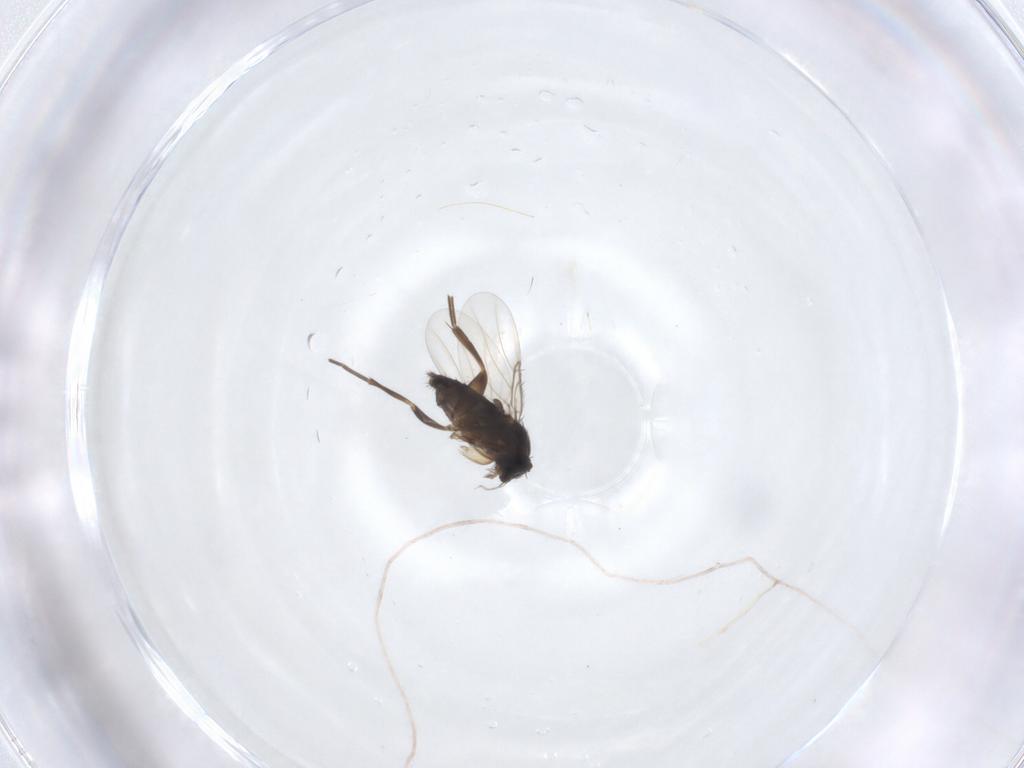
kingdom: Animalia
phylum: Arthropoda
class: Insecta
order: Diptera
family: Phoridae
